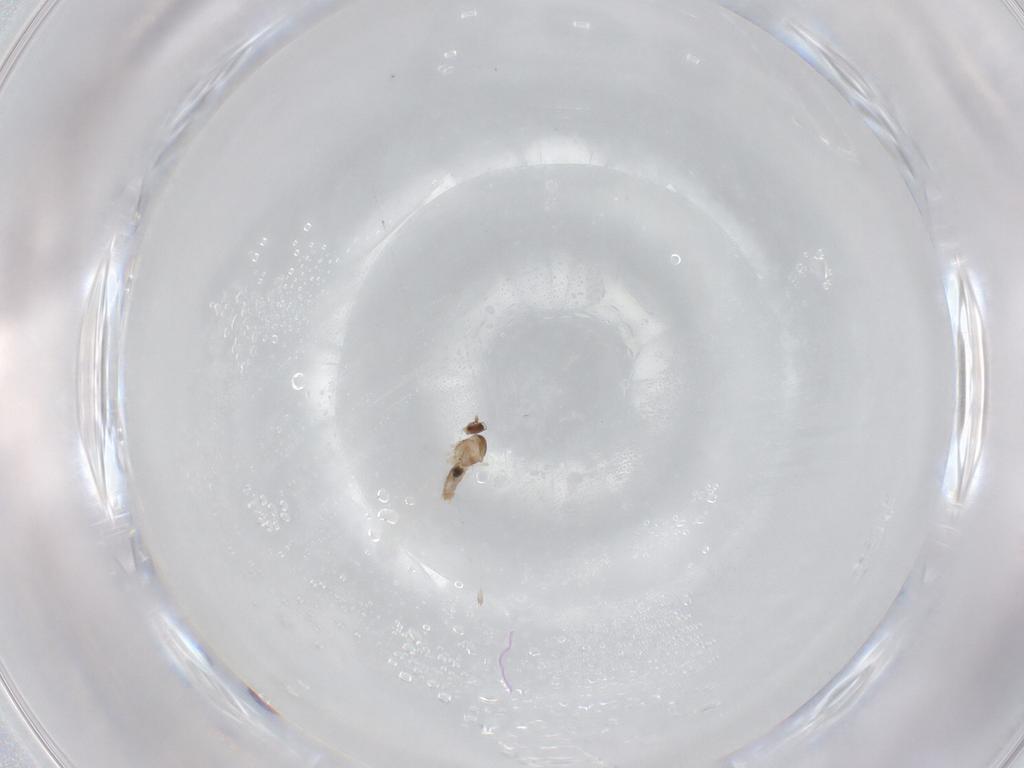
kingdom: Animalia
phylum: Arthropoda
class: Insecta
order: Diptera
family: Cecidomyiidae
